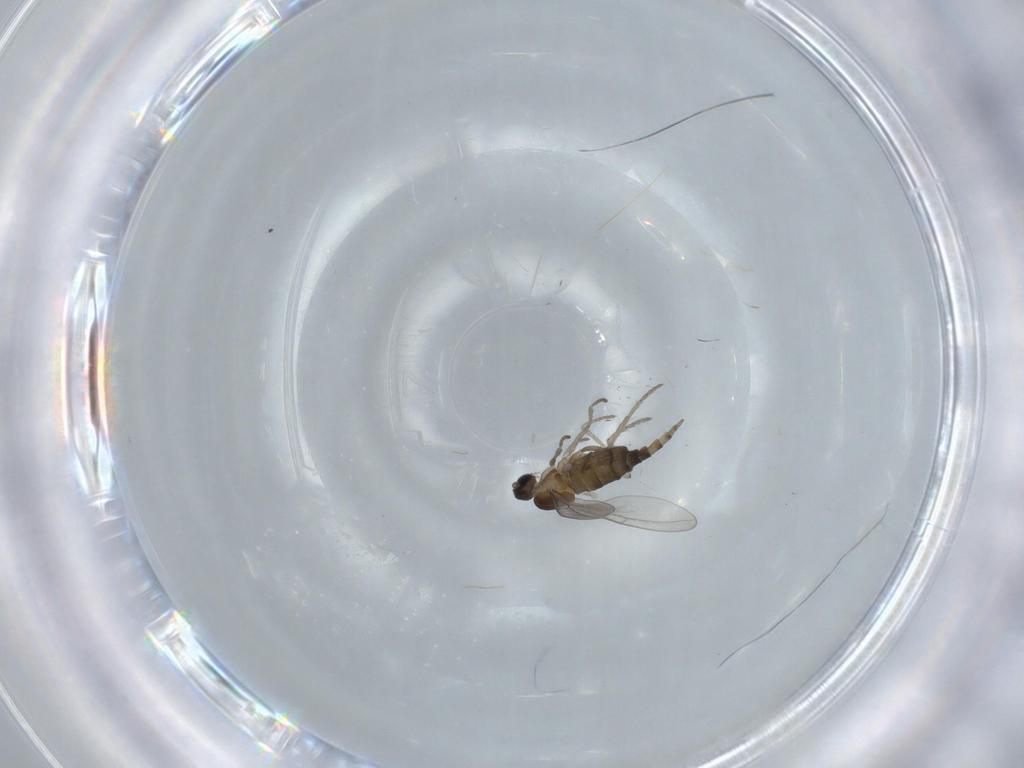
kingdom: Animalia
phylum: Arthropoda
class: Insecta
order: Diptera
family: Cecidomyiidae
